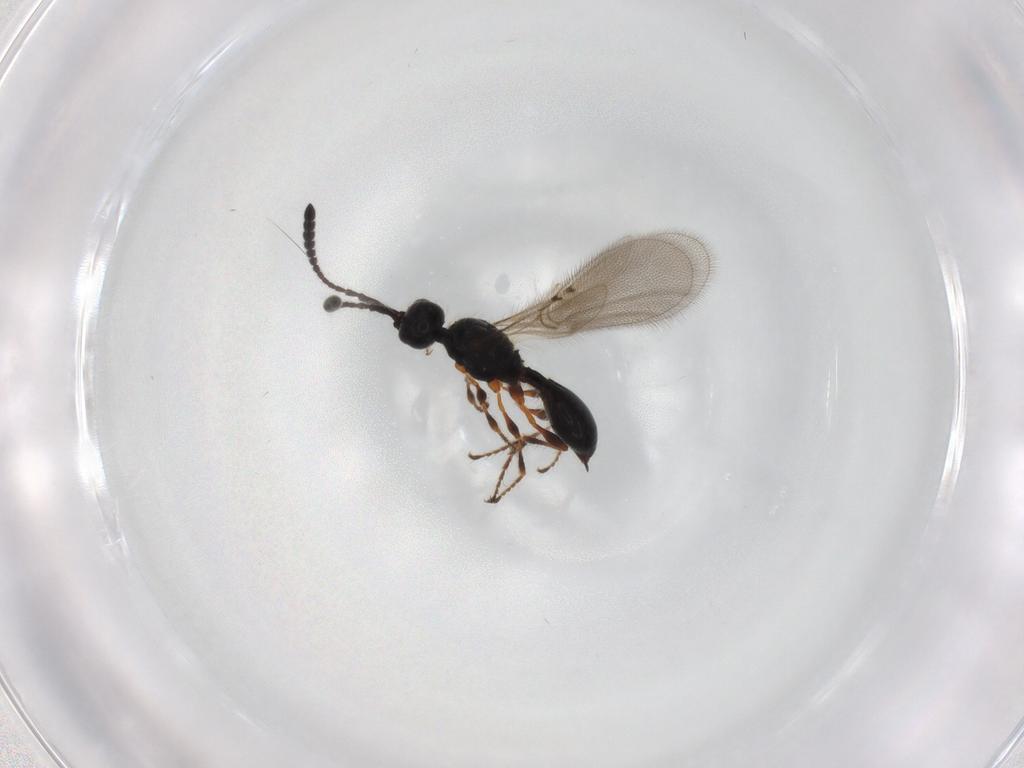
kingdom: Animalia
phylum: Arthropoda
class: Insecta
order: Hymenoptera
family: Diapriidae
